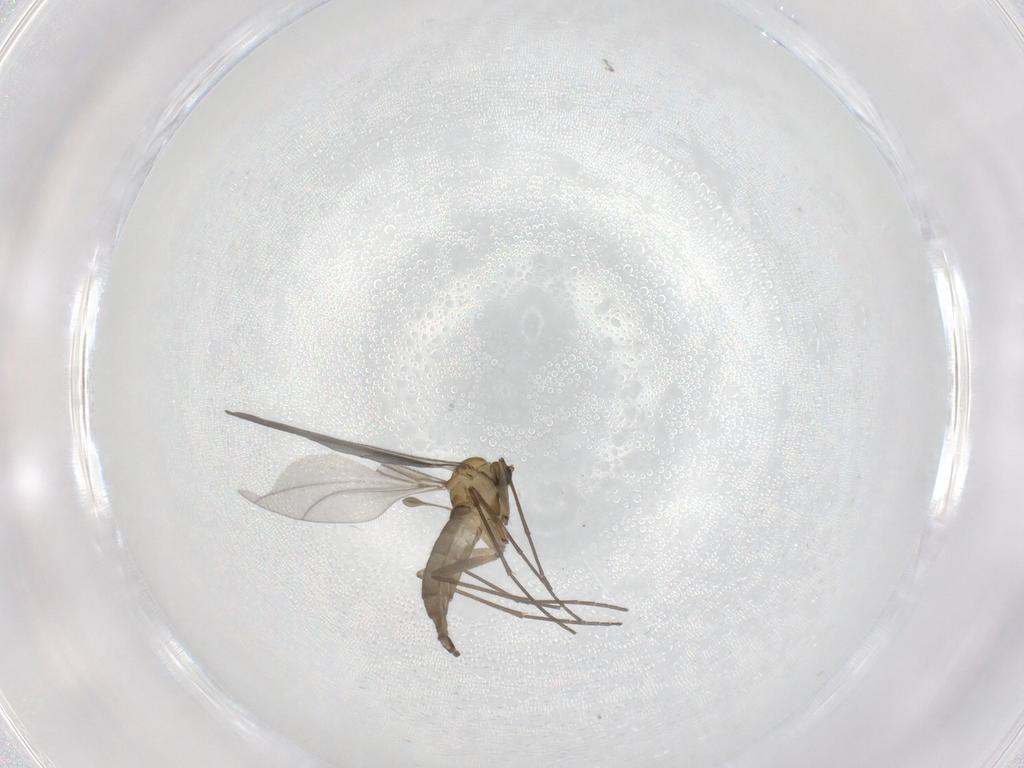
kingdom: Animalia
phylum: Arthropoda
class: Insecta
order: Diptera
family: Sciaridae
